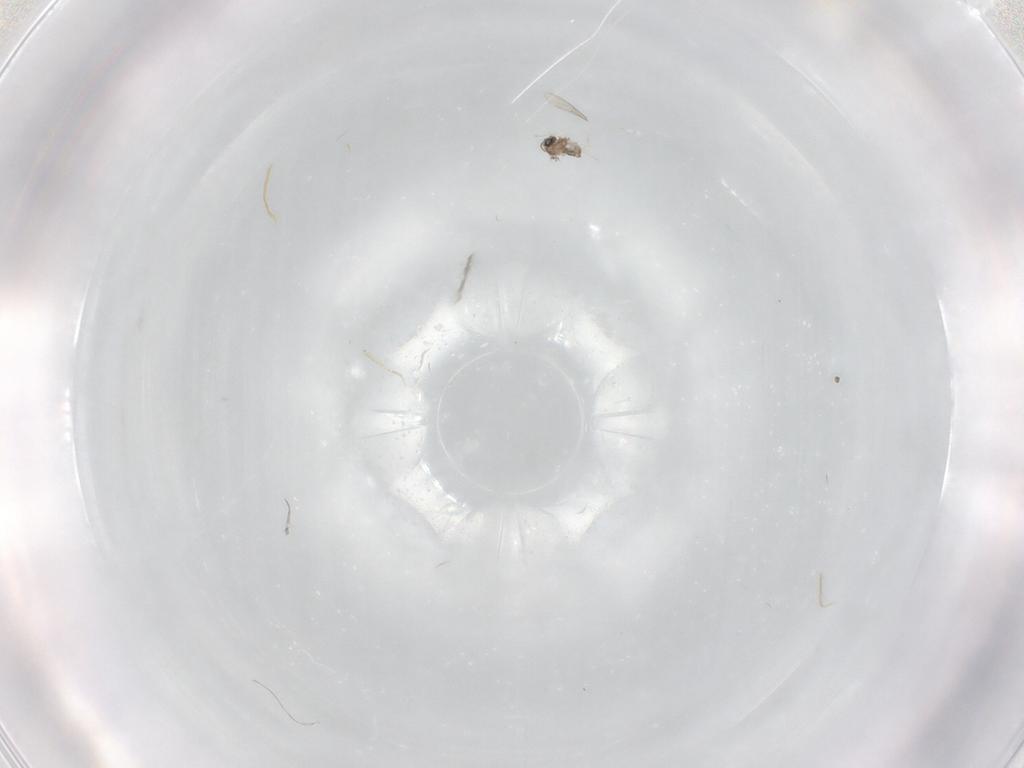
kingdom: Animalia
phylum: Arthropoda
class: Insecta
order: Diptera
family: Cecidomyiidae
